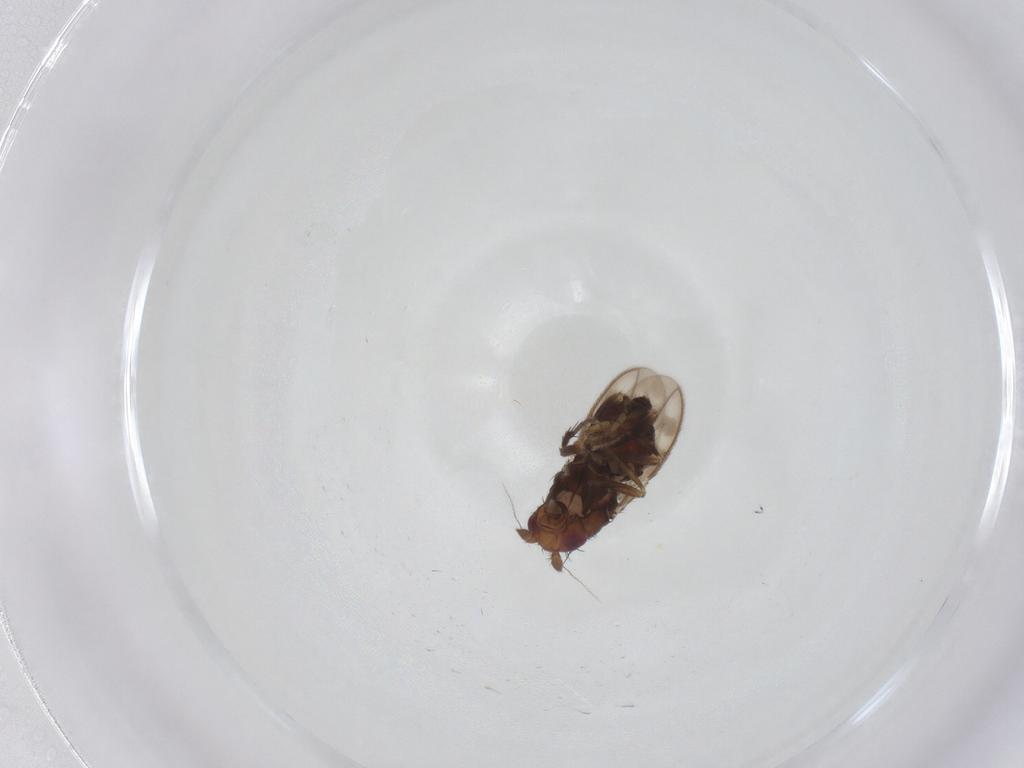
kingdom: Animalia
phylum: Arthropoda
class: Insecta
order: Diptera
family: Sphaeroceridae
